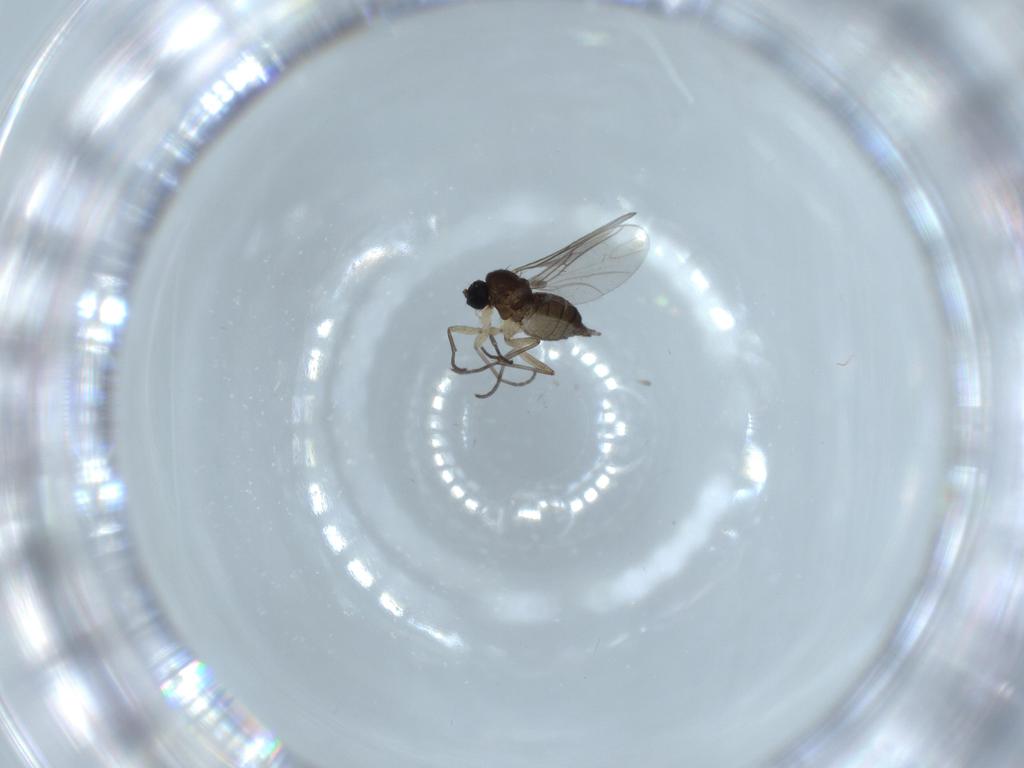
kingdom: Animalia
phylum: Arthropoda
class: Insecta
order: Diptera
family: Sciaridae
